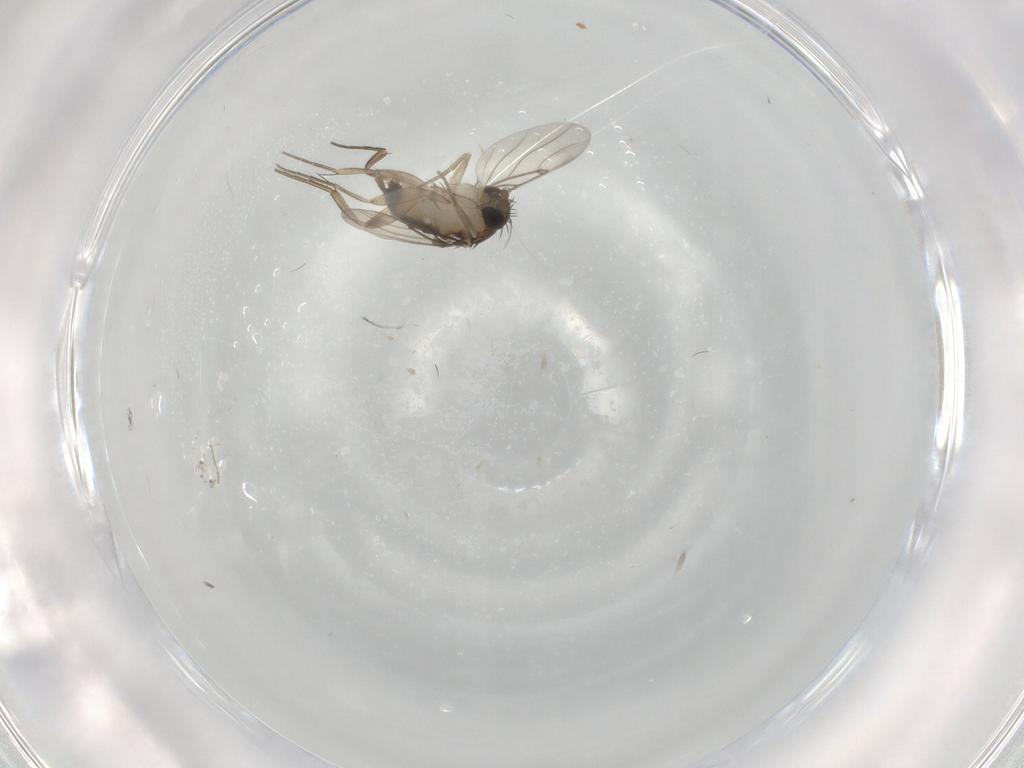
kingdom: Animalia
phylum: Arthropoda
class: Insecta
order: Diptera
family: Phoridae
